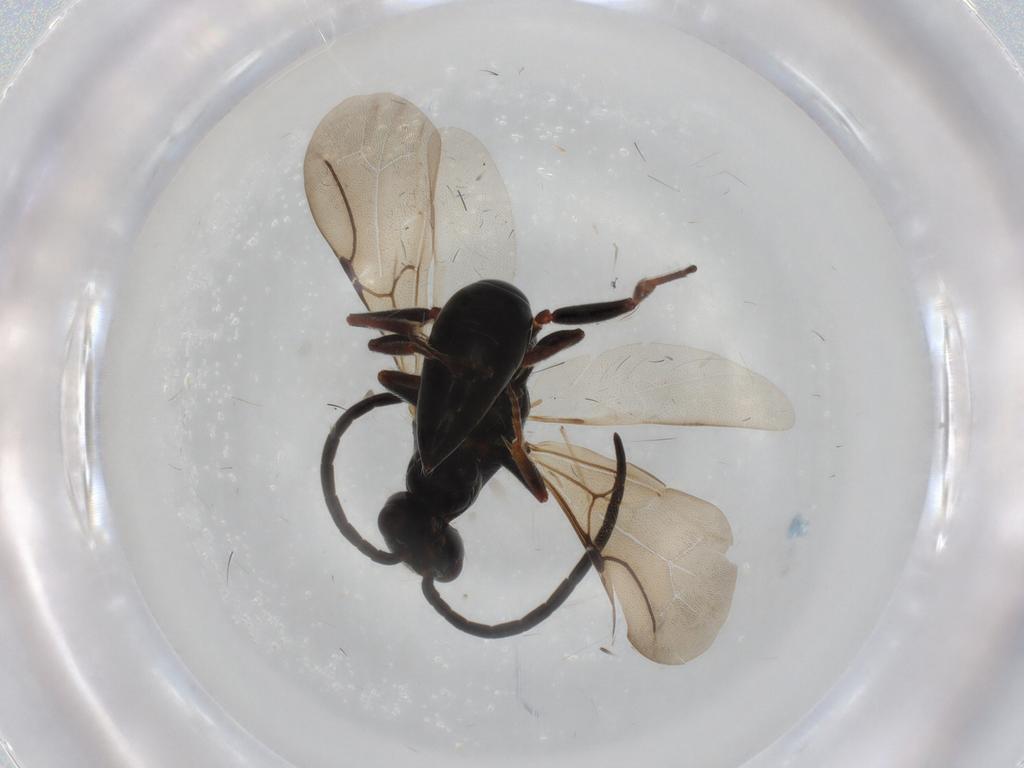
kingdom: Animalia
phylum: Arthropoda
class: Insecta
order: Hymenoptera
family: Bethylidae
